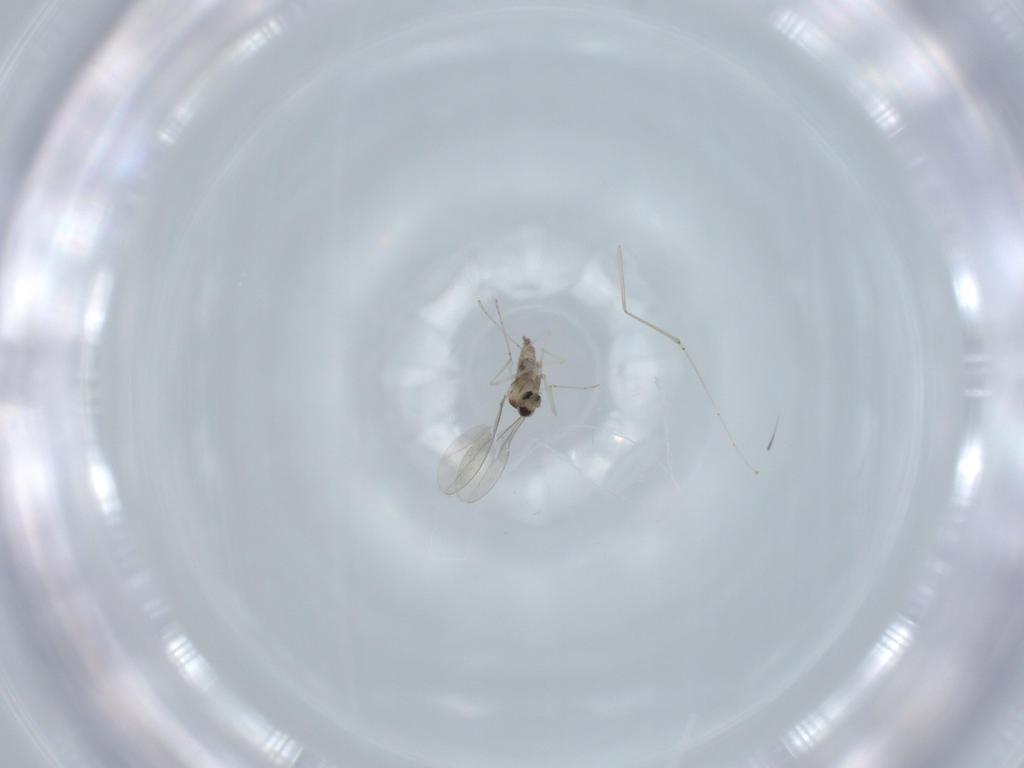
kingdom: Animalia
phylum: Arthropoda
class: Insecta
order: Diptera
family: Cecidomyiidae
